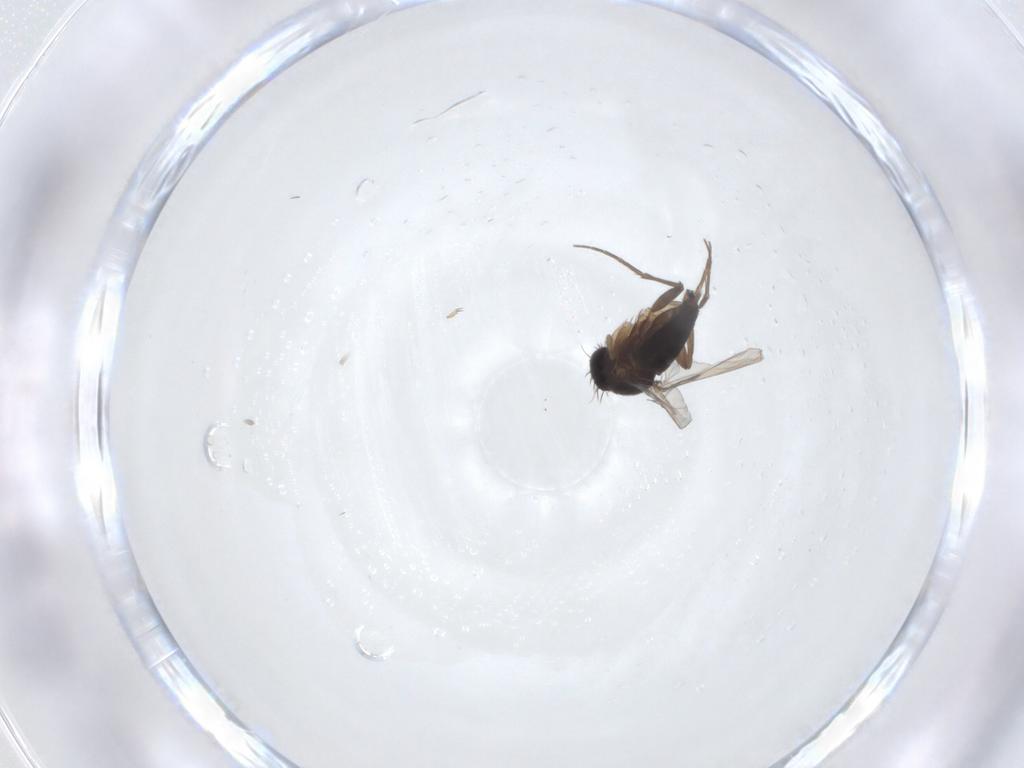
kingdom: Animalia
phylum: Arthropoda
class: Insecta
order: Diptera
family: Phoridae
